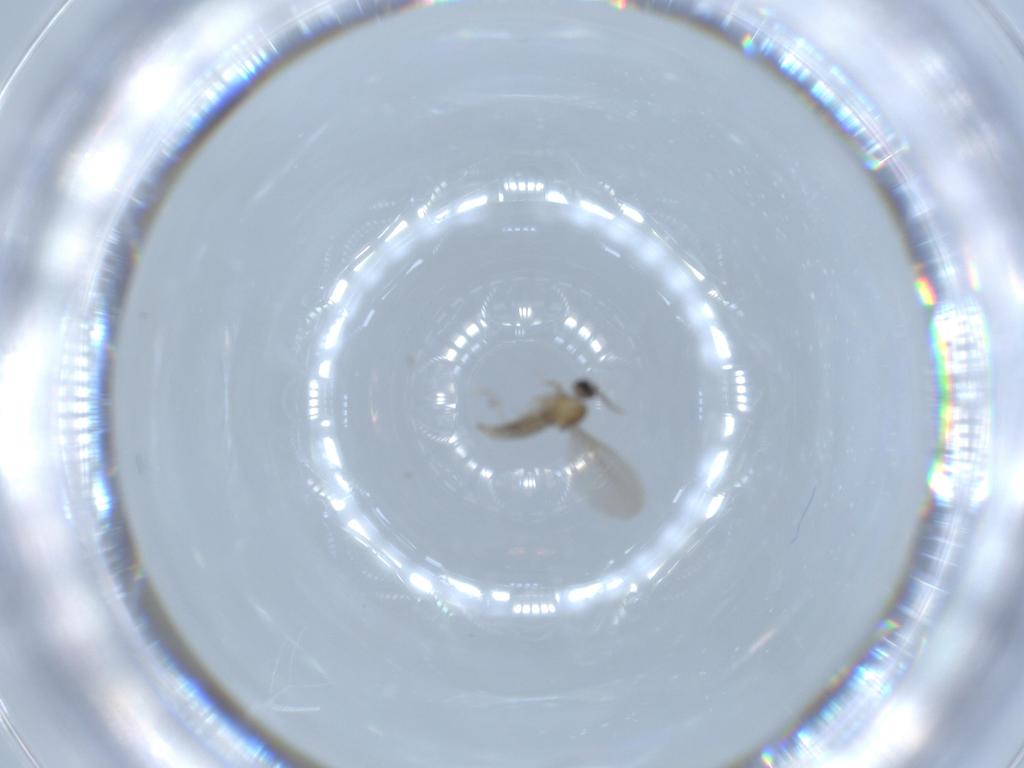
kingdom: Animalia
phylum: Arthropoda
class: Insecta
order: Diptera
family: Cecidomyiidae
